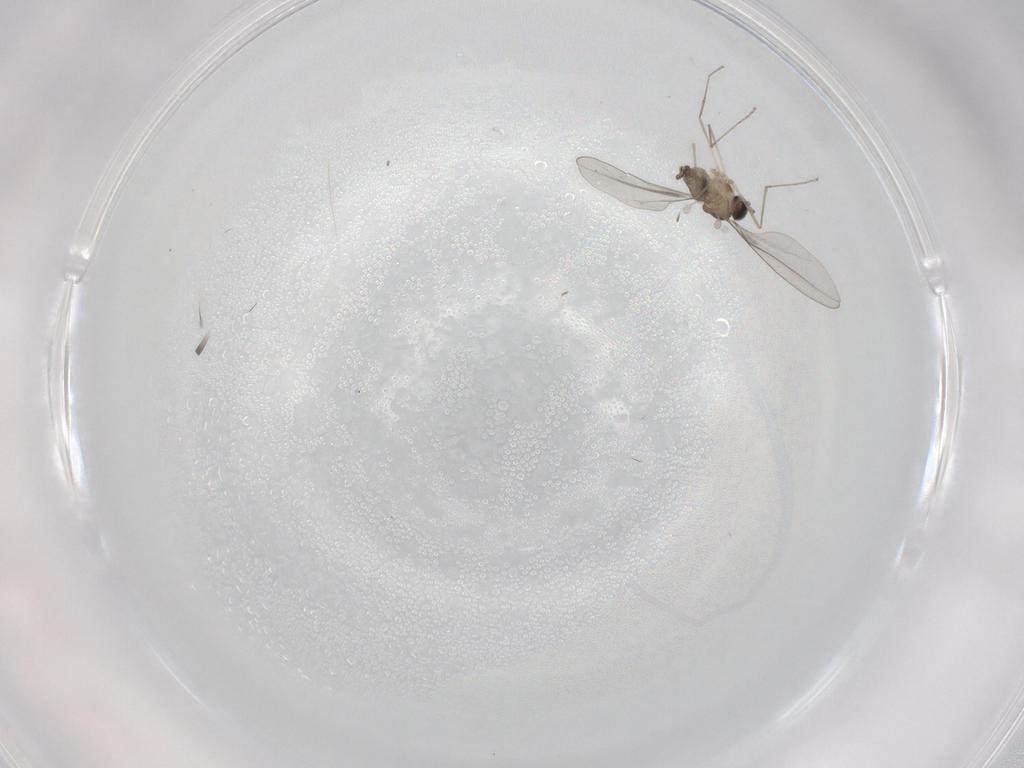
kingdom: Animalia
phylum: Arthropoda
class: Insecta
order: Diptera
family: Cecidomyiidae
